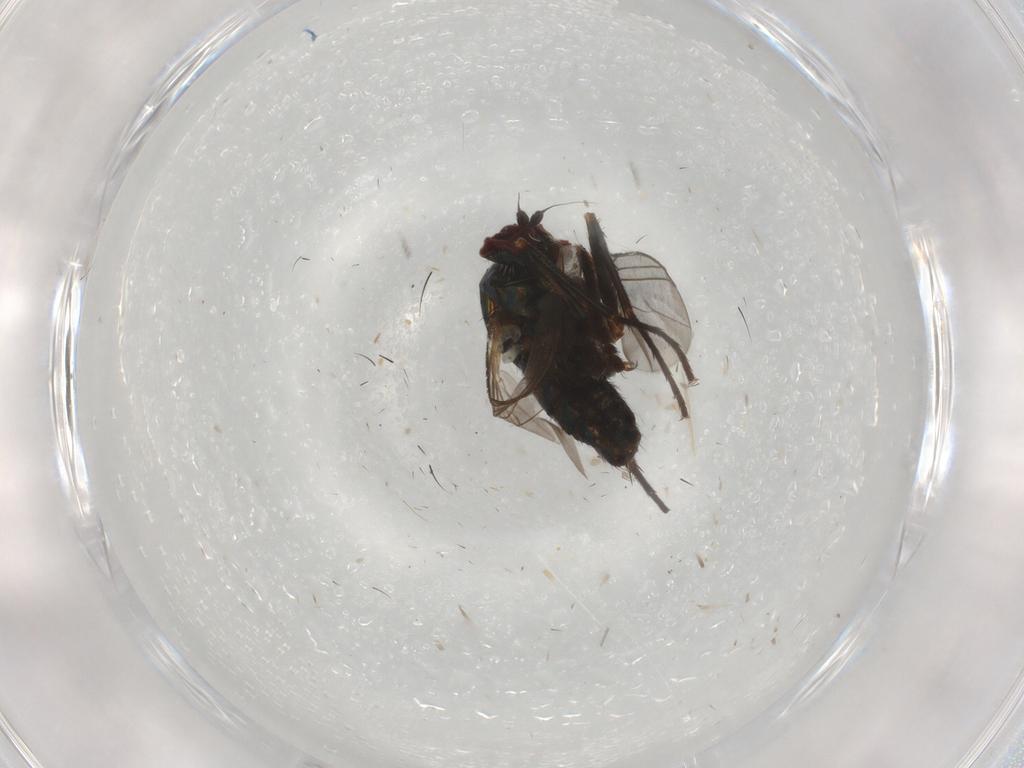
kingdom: Animalia
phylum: Arthropoda
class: Insecta
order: Diptera
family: Dolichopodidae
